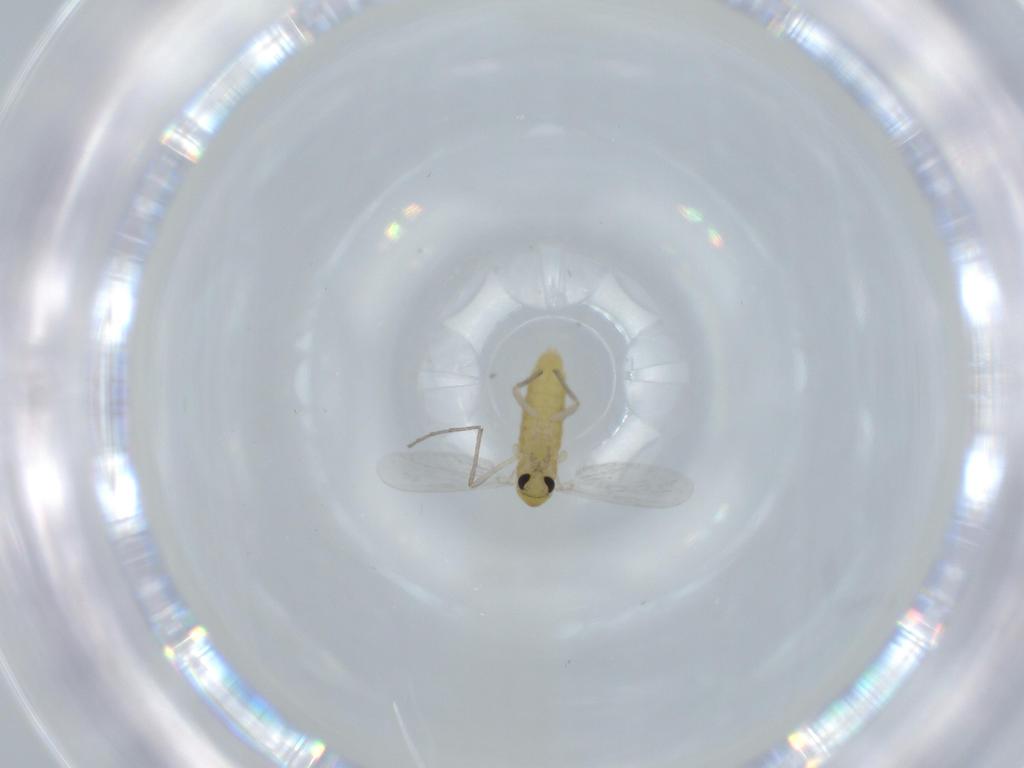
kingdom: Animalia
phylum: Arthropoda
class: Insecta
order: Diptera
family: Chironomidae
